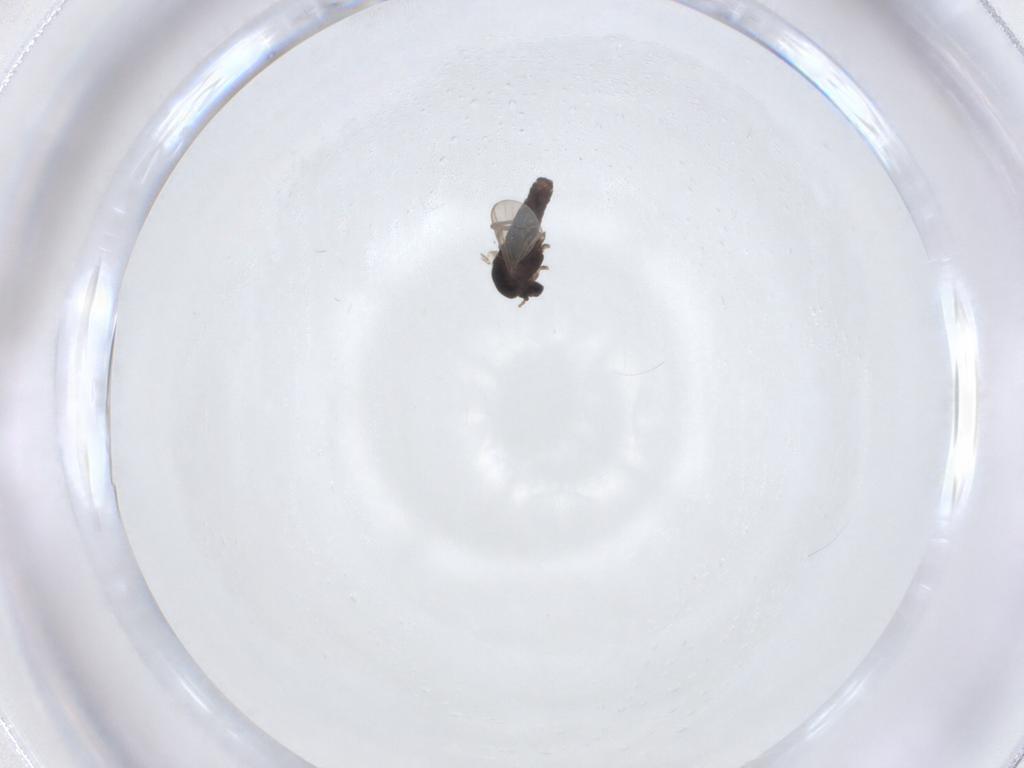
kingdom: Animalia
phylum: Arthropoda
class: Insecta
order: Diptera
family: Chironomidae
